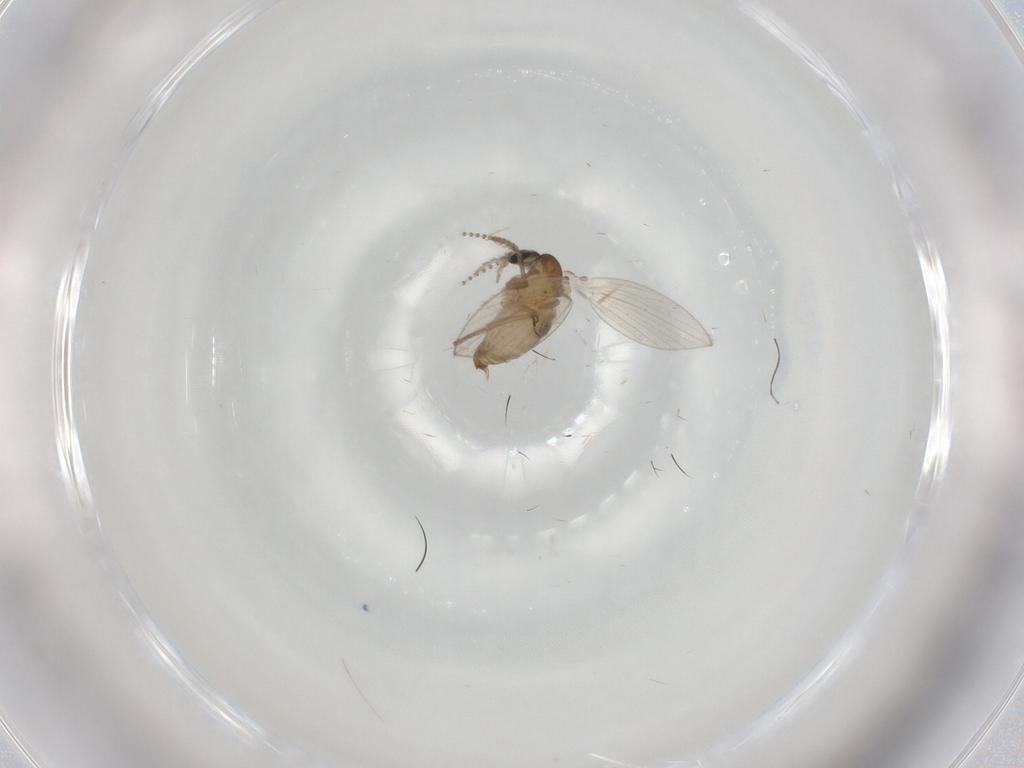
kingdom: Animalia
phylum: Arthropoda
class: Insecta
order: Diptera
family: Psychodidae
